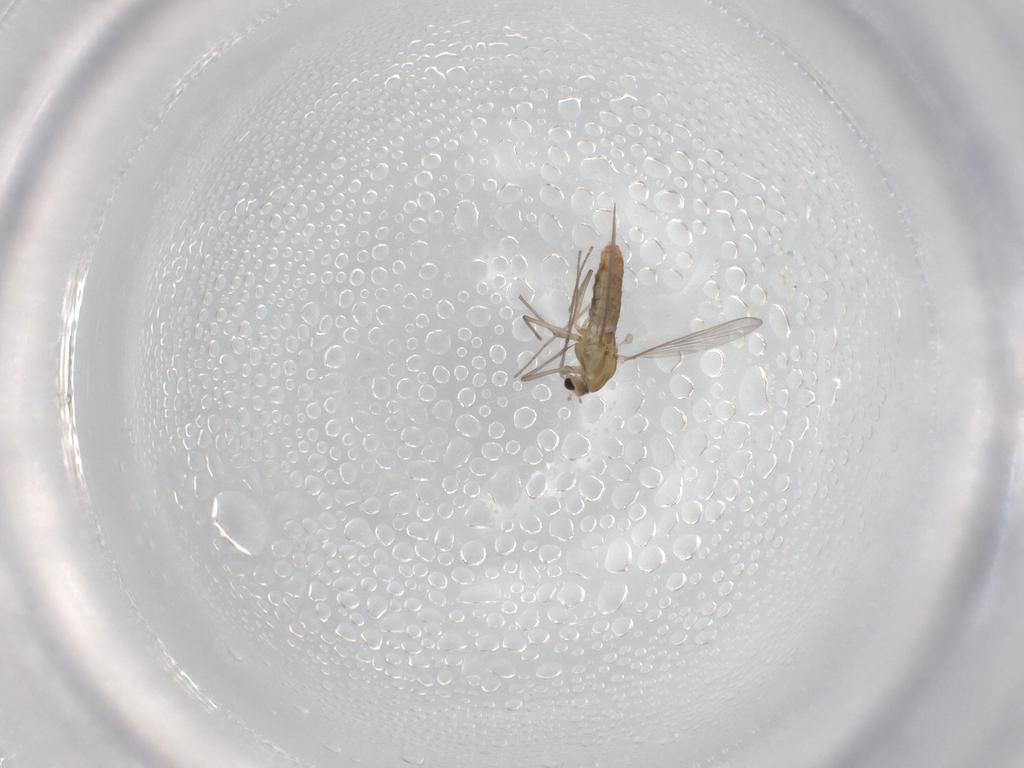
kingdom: Animalia
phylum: Arthropoda
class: Insecta
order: Diptera
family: Chironomidae
